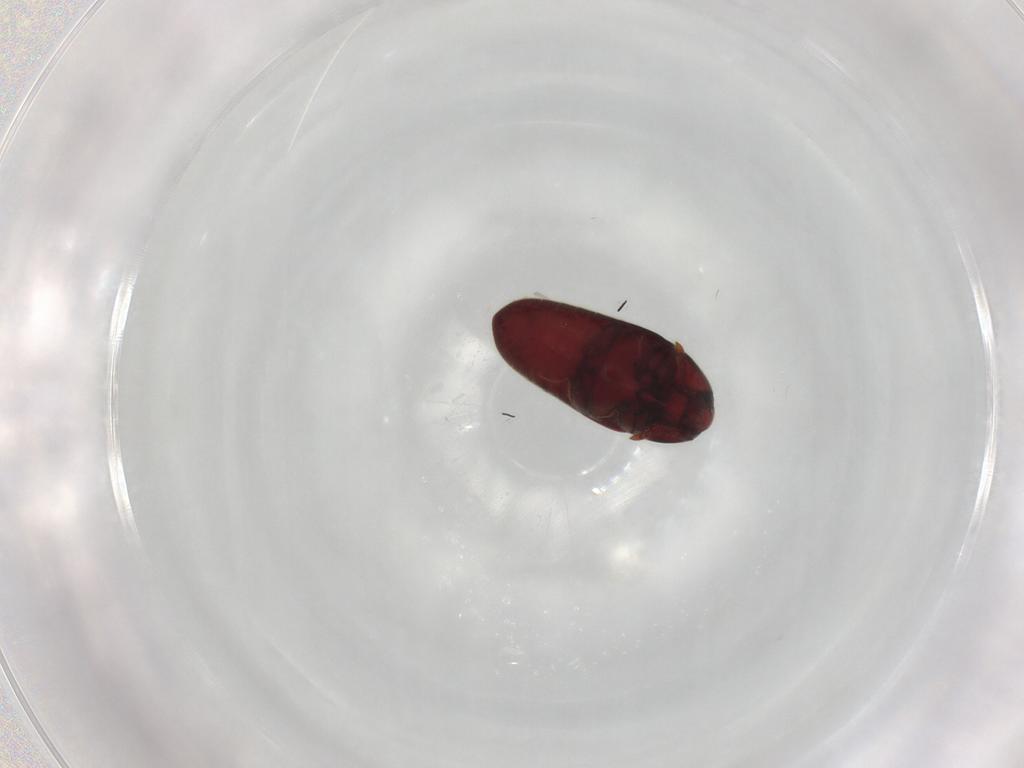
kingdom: Animalia
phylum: Arthropoda
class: Insecta
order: Coleoptera
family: Throscidae
